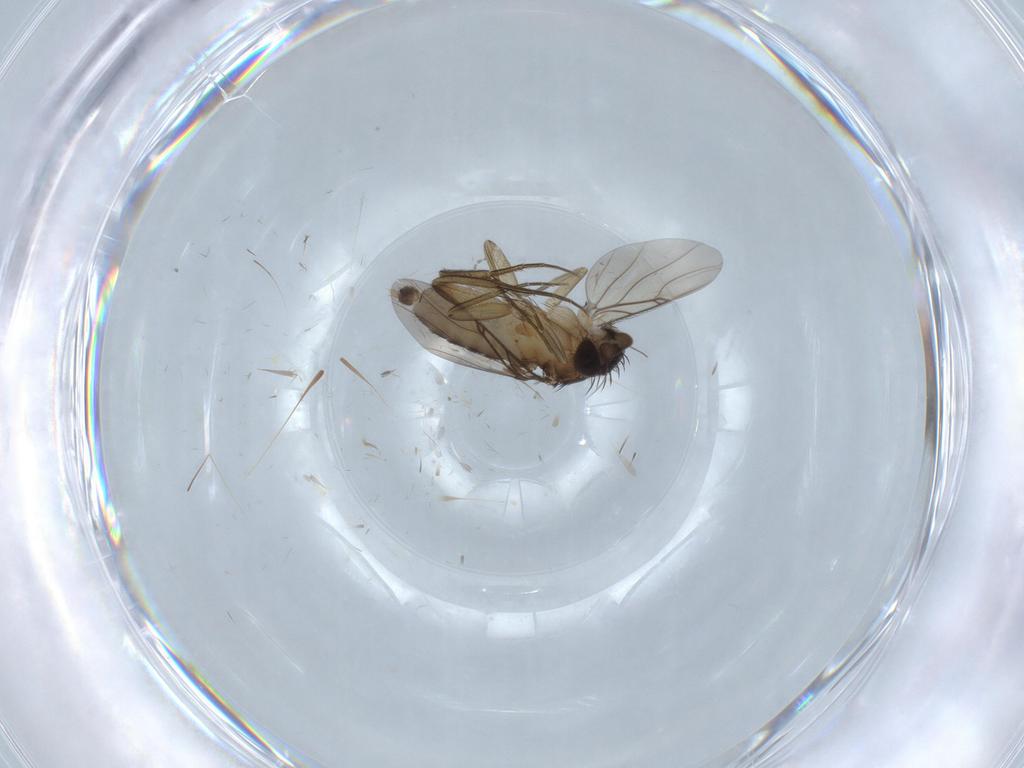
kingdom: Animalia
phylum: Arthropoda
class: Insecta
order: Diptera
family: Phoridae
